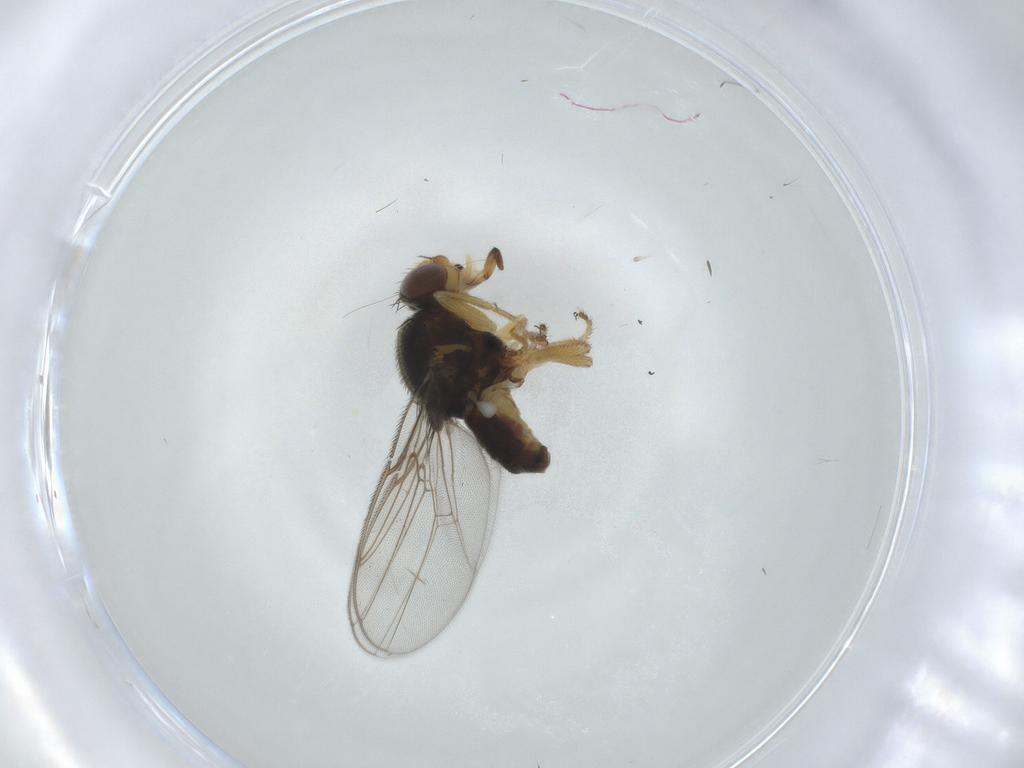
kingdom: Animalia
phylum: Arthropoda
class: Insecta
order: Diptera
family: Chloropidae
